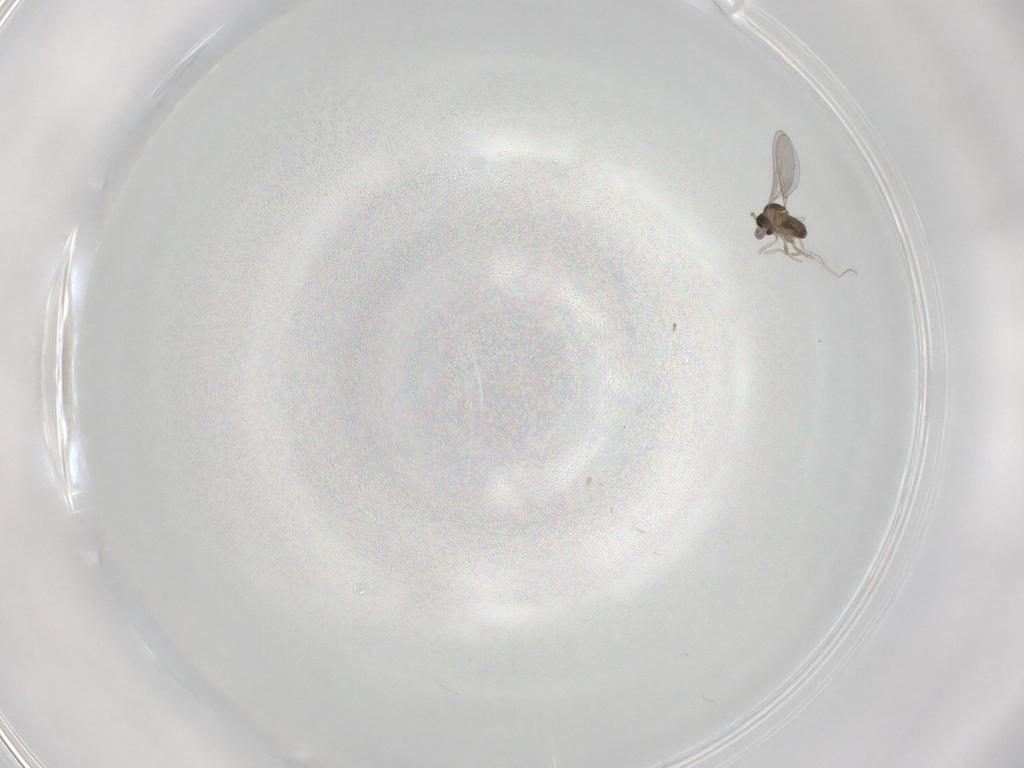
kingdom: Animalia
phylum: Arthropoda
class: Insecta
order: Diptera
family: Cecidomyiidae
